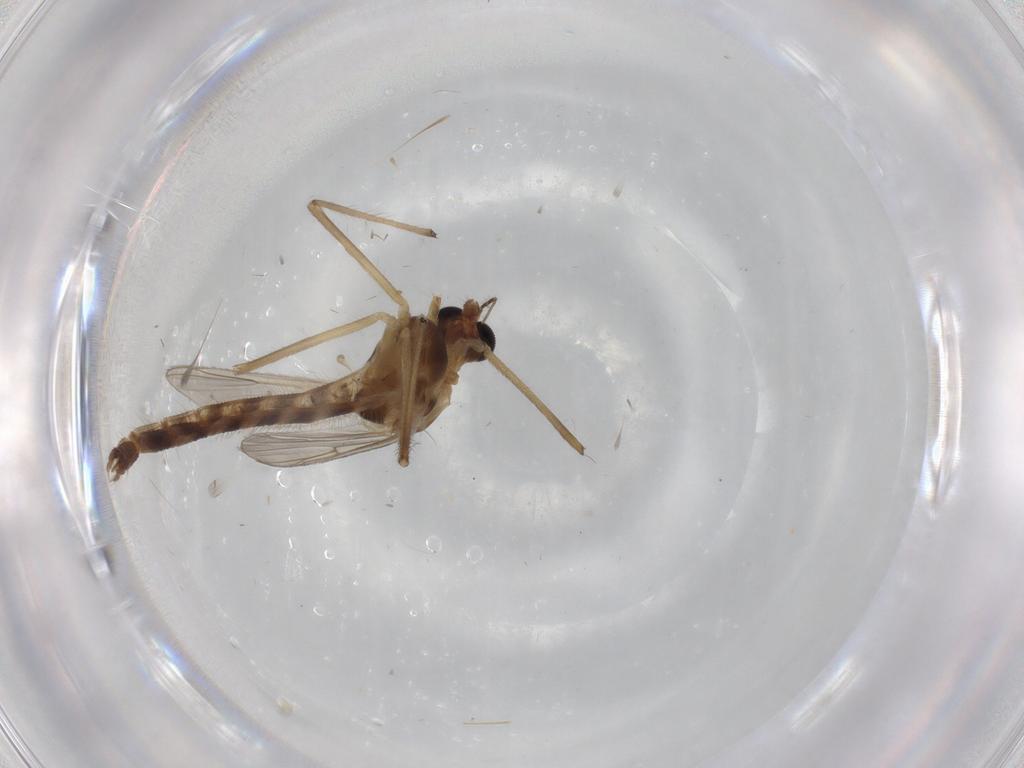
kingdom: Animalia
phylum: Arthropoda
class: Insecta
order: Diptera
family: Chironomidae
